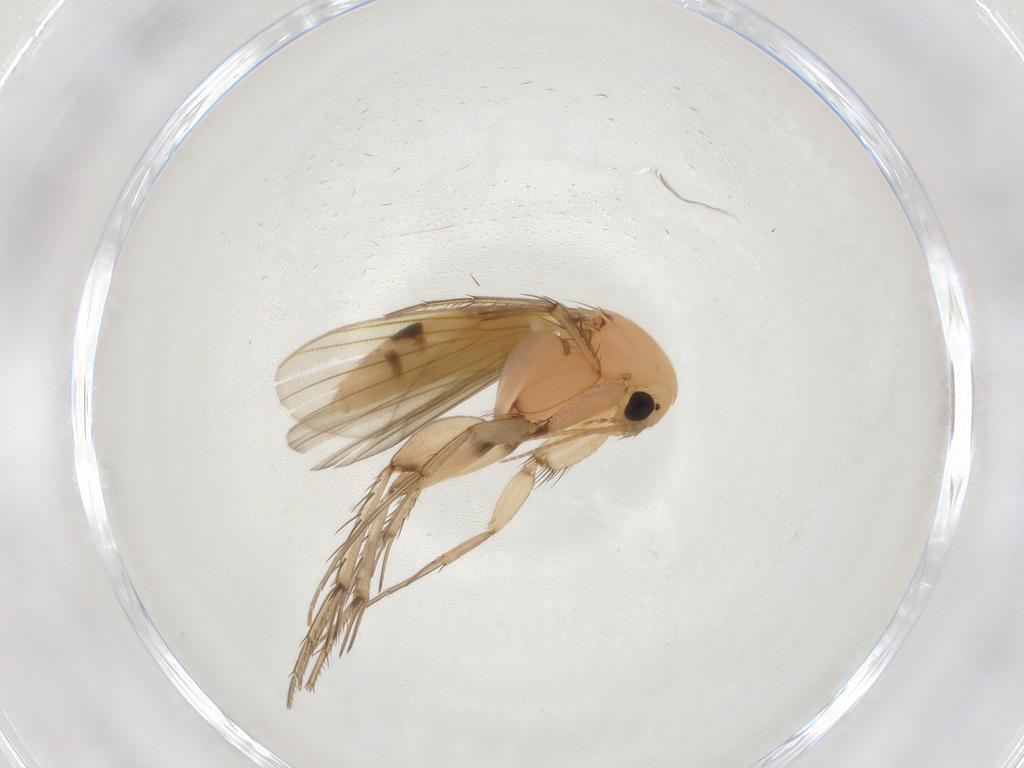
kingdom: Animalia
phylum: Arthropoda
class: Insecta
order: Diptera
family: Mycetophilidae
